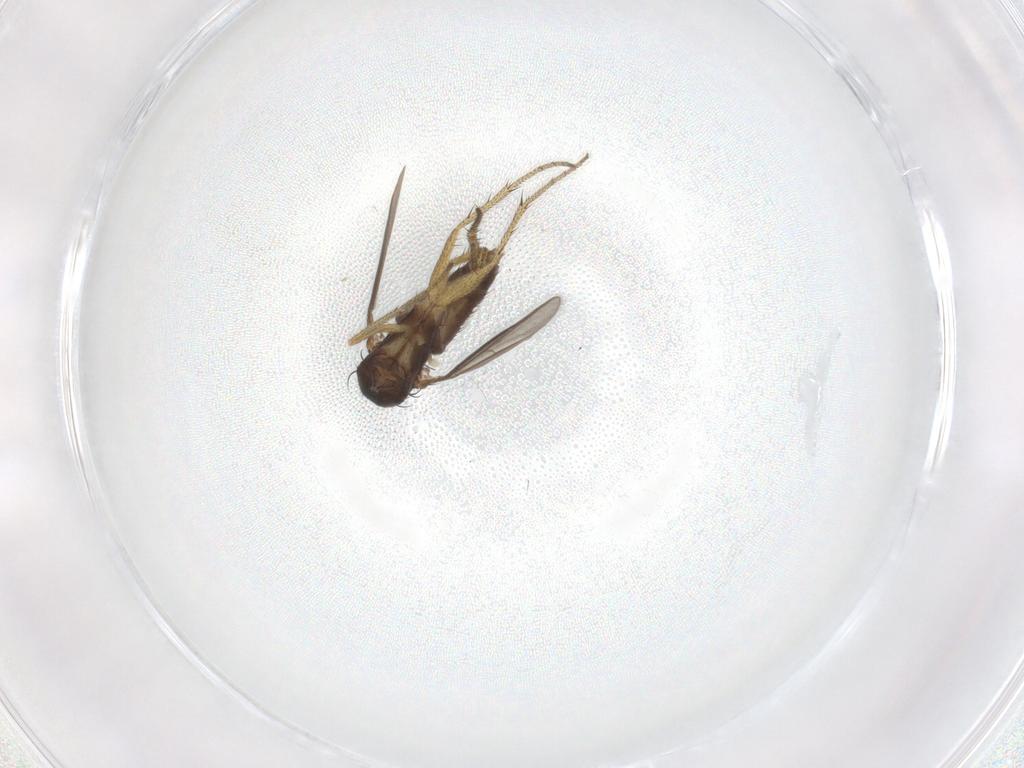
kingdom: Animalia
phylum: Arthropoda
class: Insecta
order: Diptera
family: Dolichopodidae
